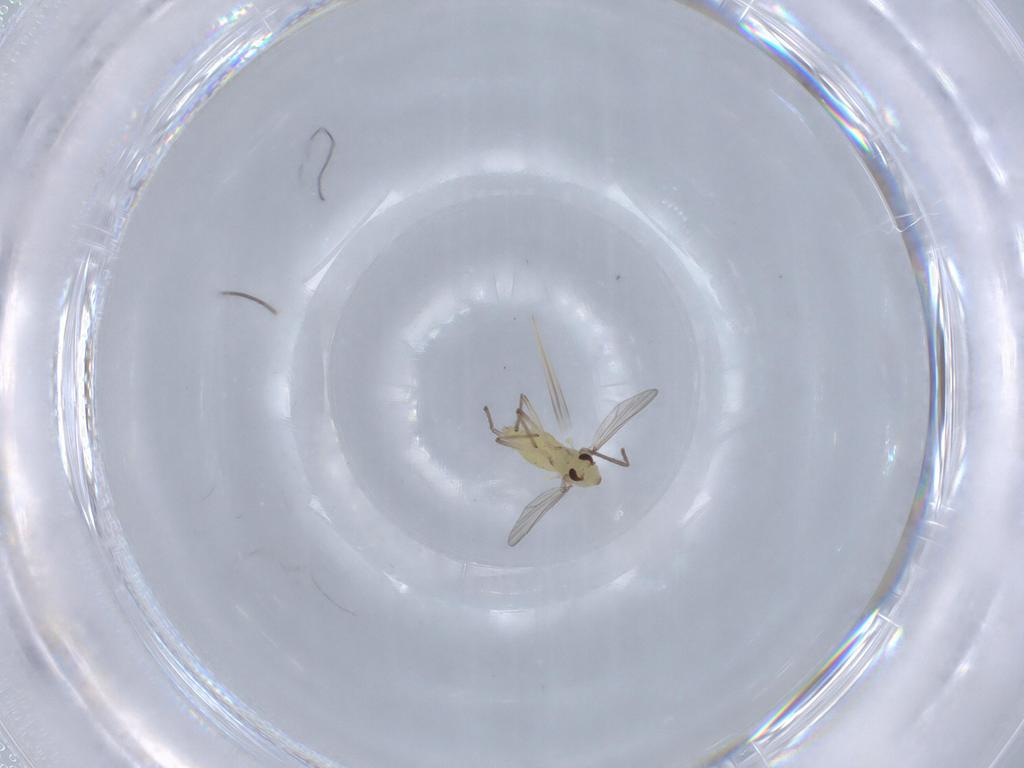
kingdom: Animalia
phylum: Arthropoda
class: Insecta
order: Diptera
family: Chironomidae
